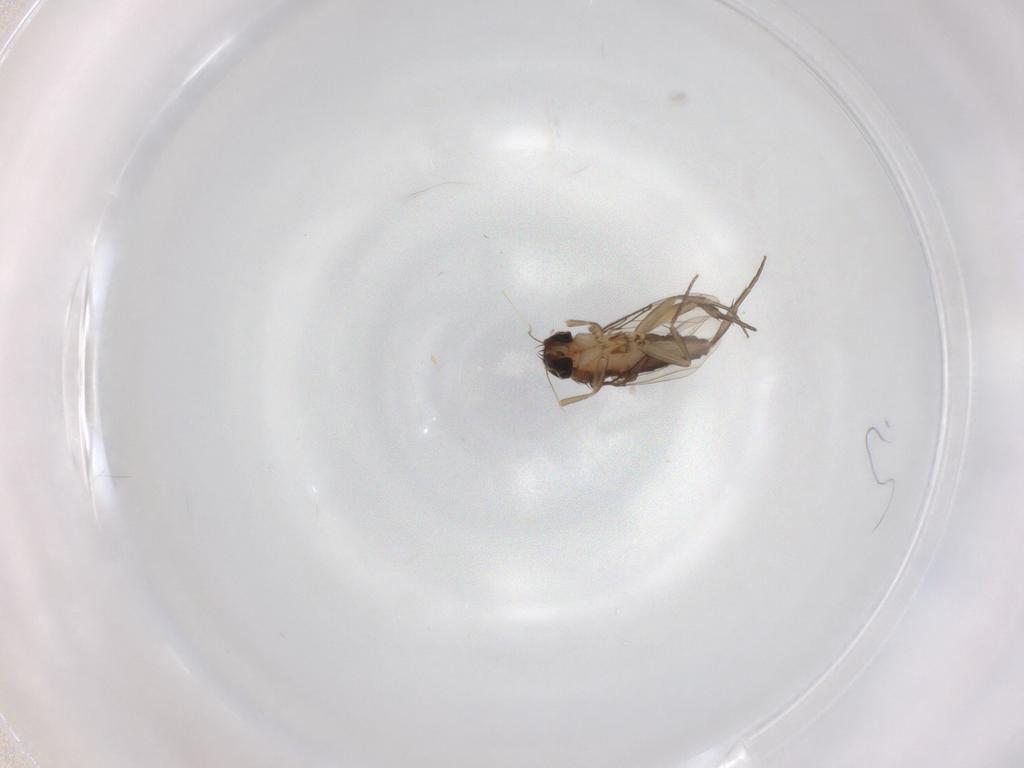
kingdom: Animalia
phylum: Arthropoda
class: Insecta
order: Diptera
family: Phoridae
